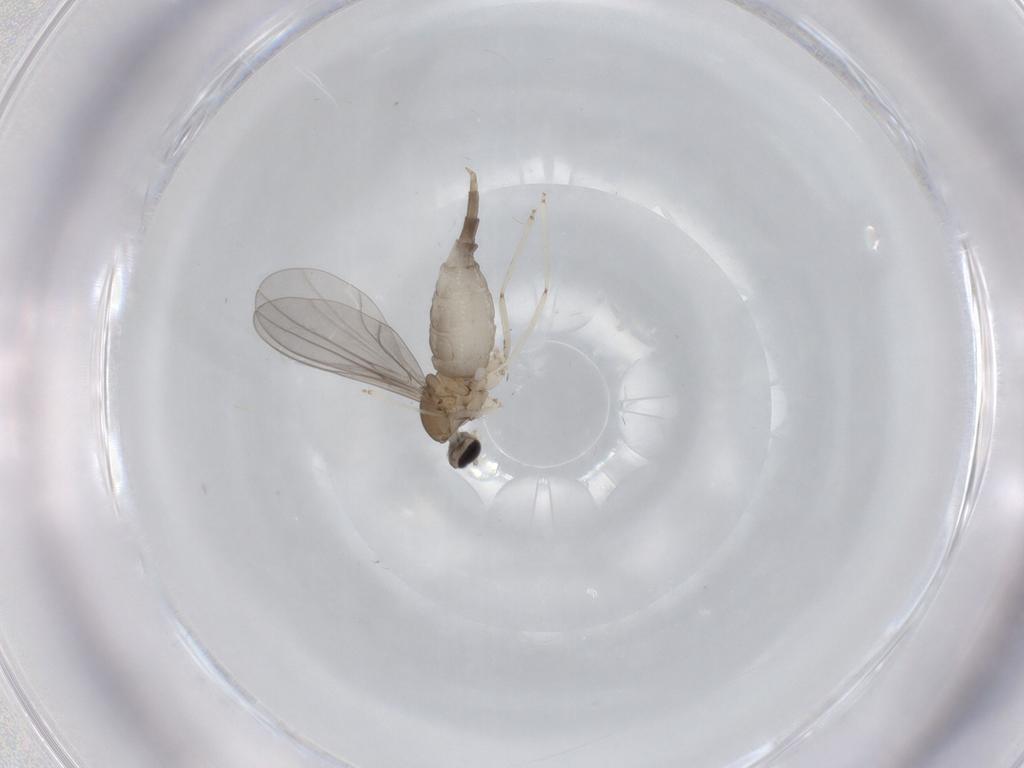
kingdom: Animalia
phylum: Arthropoda
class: Insecta
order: Diptera
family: Cecidomyiidae
